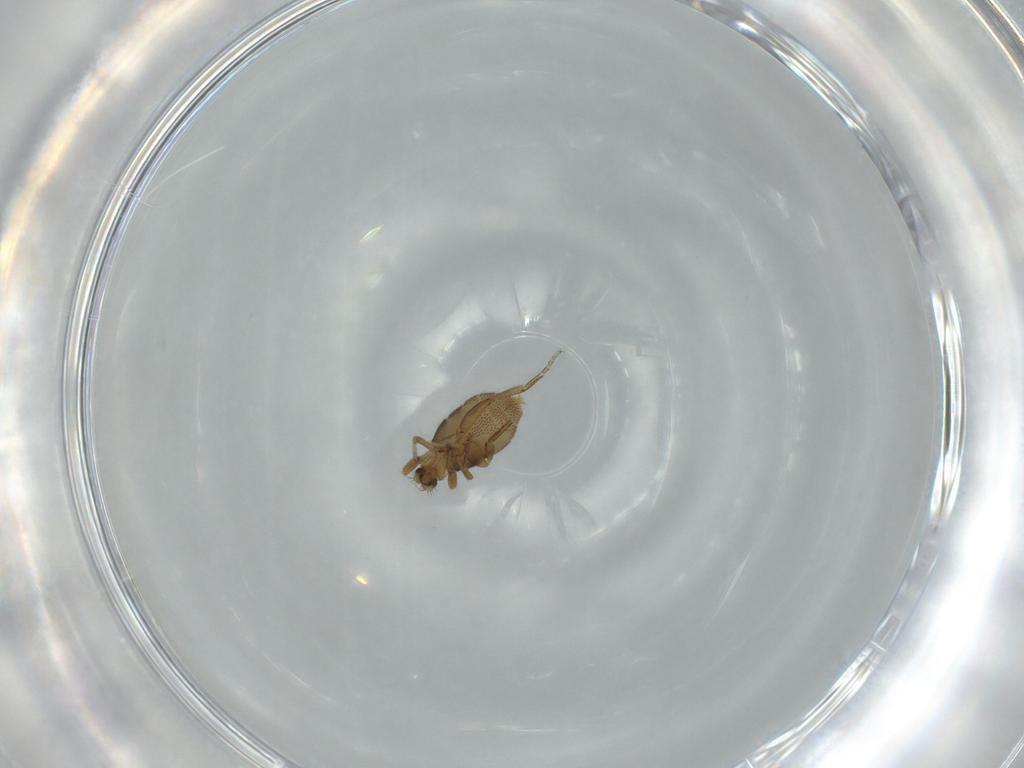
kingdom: Animalia
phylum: Arthropoda
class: Insecta
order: Diptera
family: Phoridae
